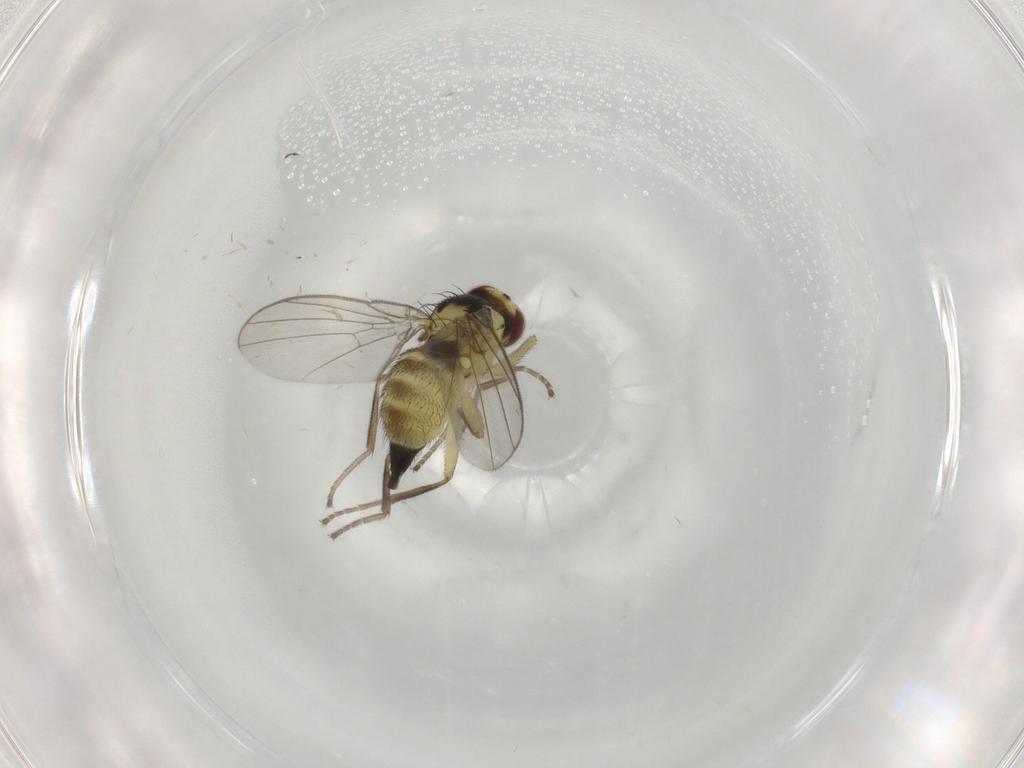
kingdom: Animalia
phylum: Arthropoda
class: Insecta
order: Diptera
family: Agromyzidae
